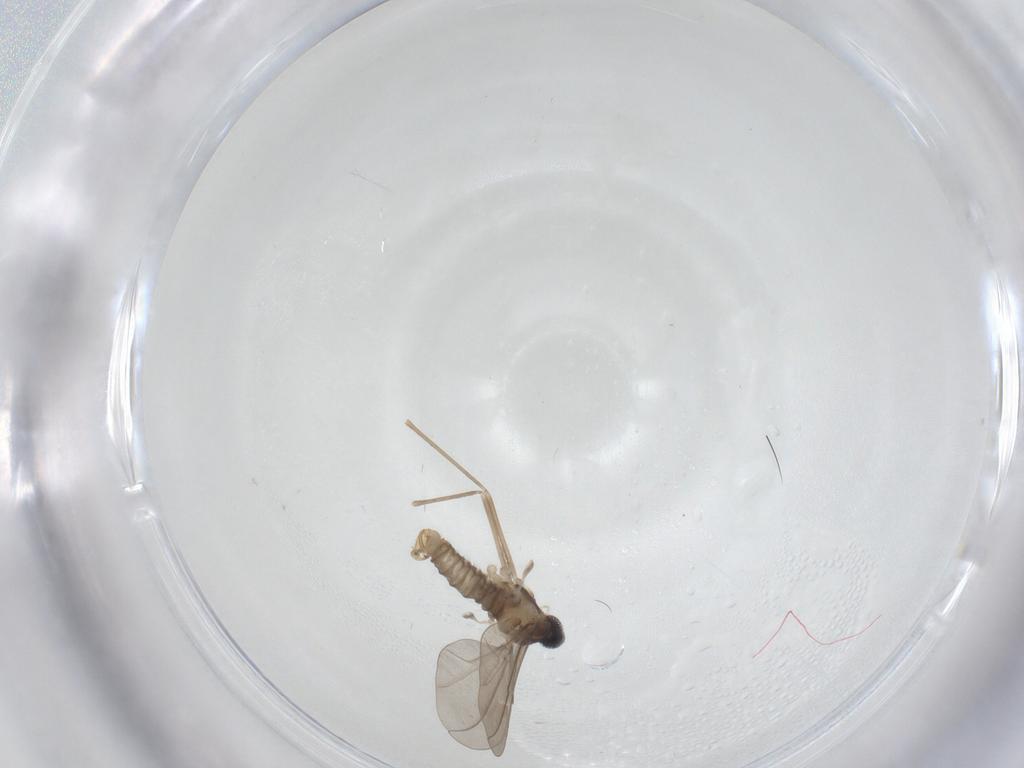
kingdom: Animalia
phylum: Arthropoda
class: Insecta
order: Diptera
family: Cecidomyiidae
